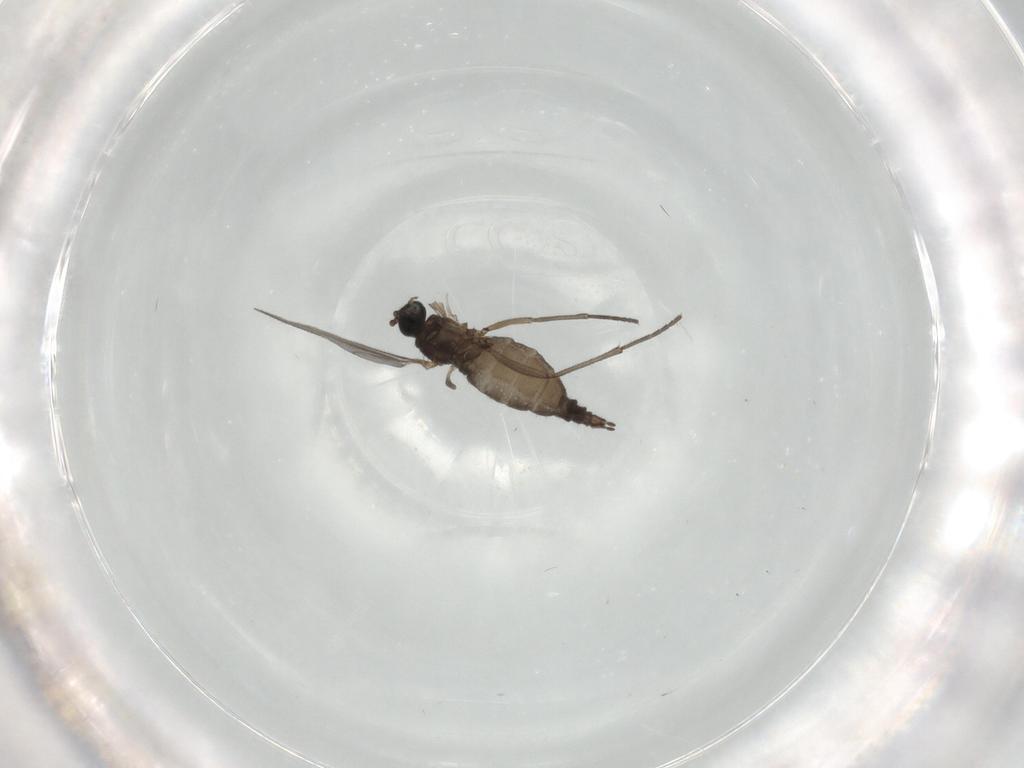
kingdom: Animalia
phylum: Arthropoda
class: Insecta
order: Diptera
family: Sciaridae
